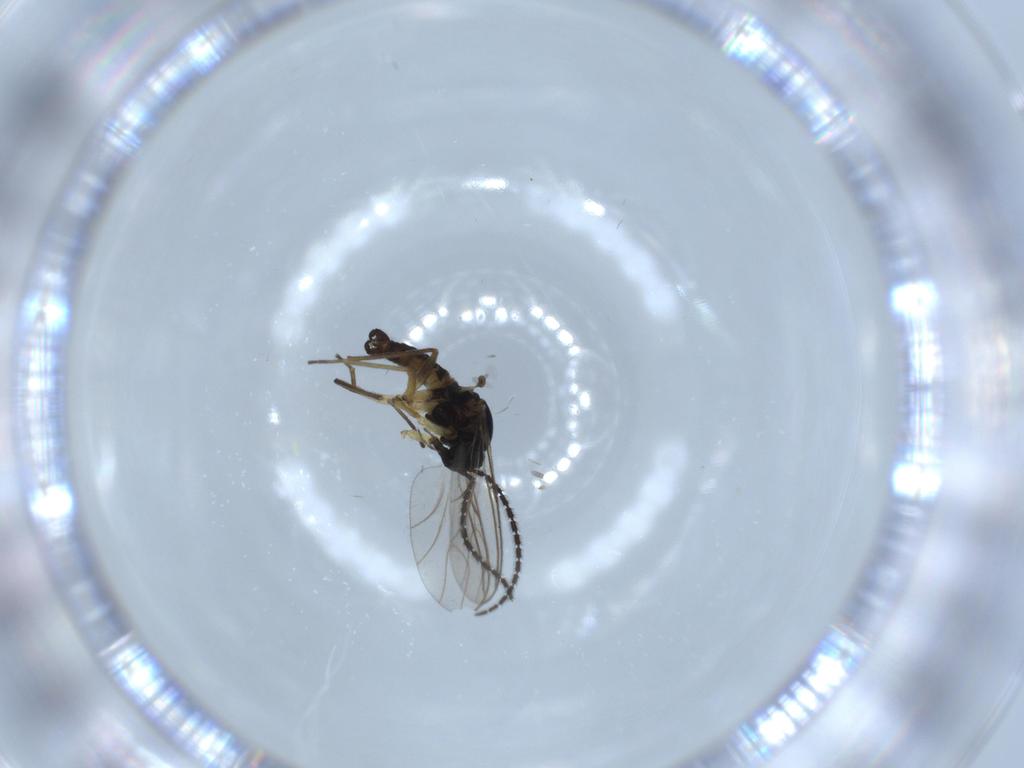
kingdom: Animalia
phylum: Arthropoda
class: Insecta
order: Diptera
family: Sciaridae
